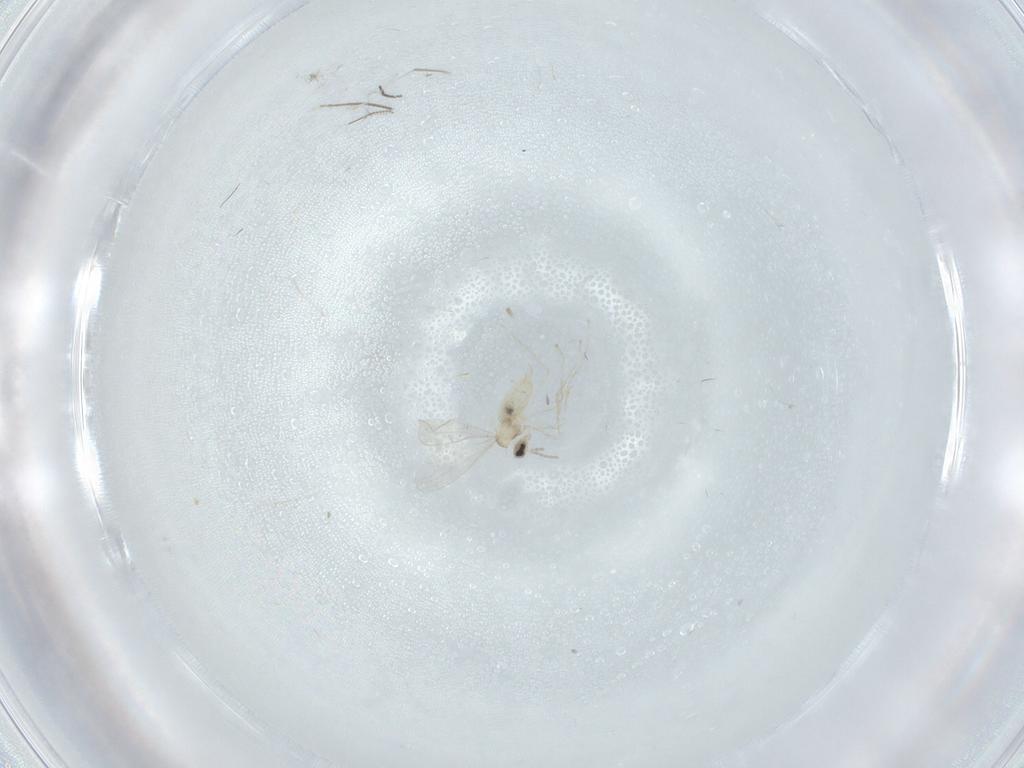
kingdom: Animalia
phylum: Arthropoda
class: Insecta
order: Diptera
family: Chironomidae
